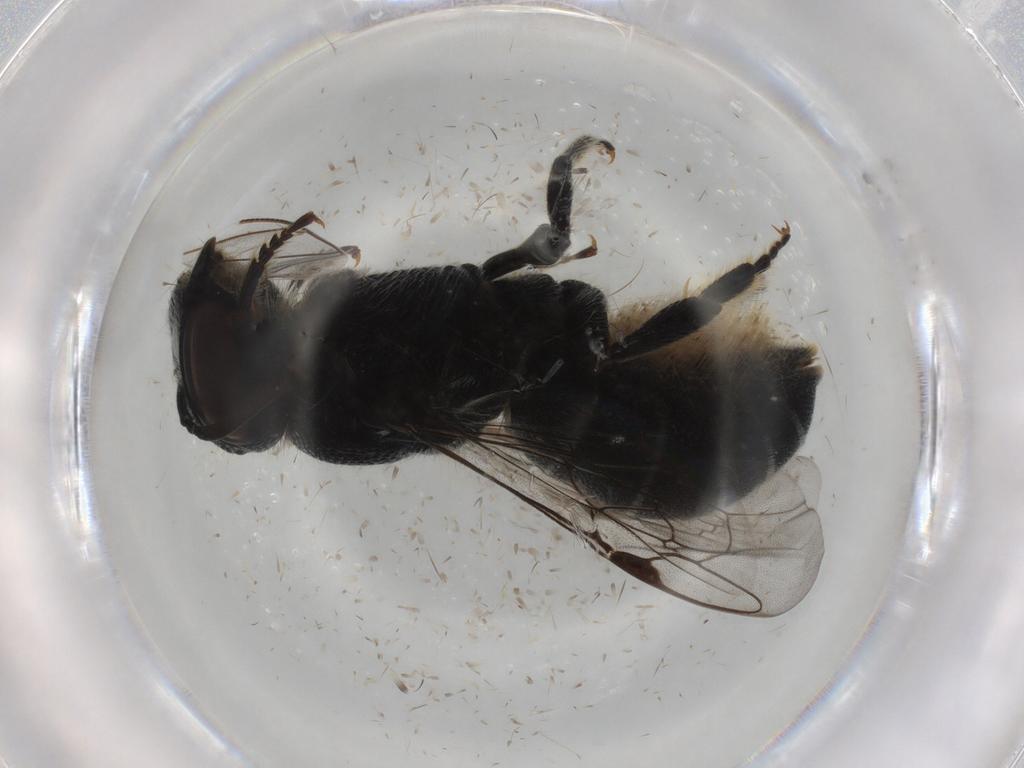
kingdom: Animalia
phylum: Arthropoda
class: Insecta
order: Hymenoptera
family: Megachilidae
